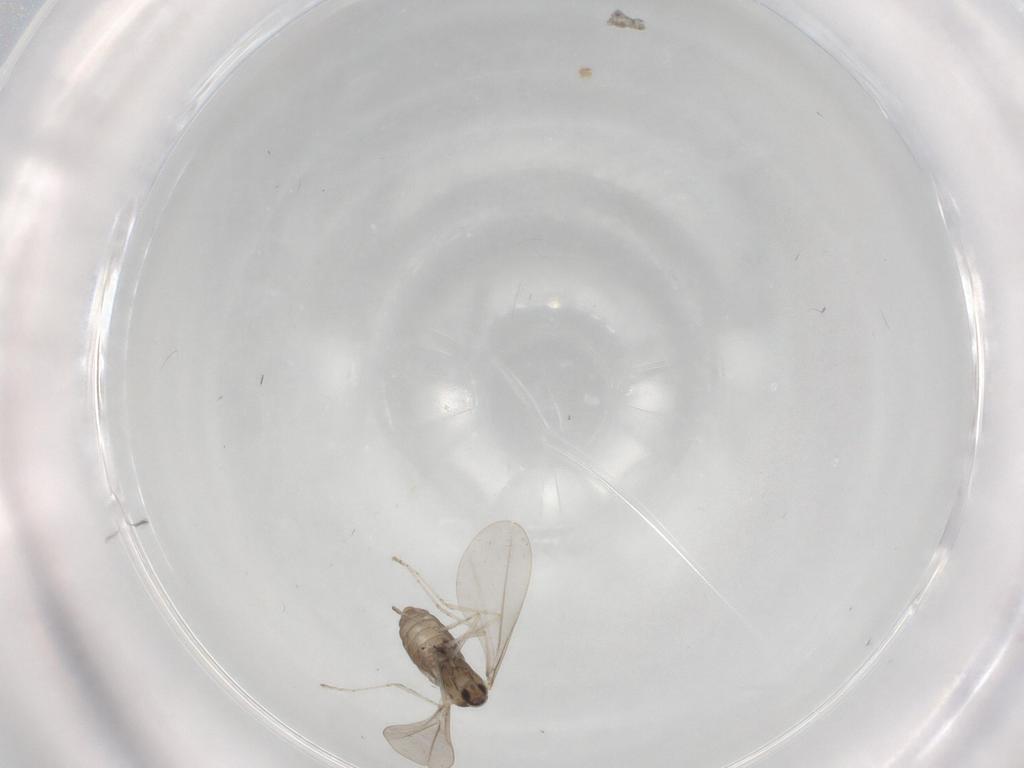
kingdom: Animalia
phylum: Arthropoda
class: Insecta
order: Diptera
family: Cecidomyiidae
